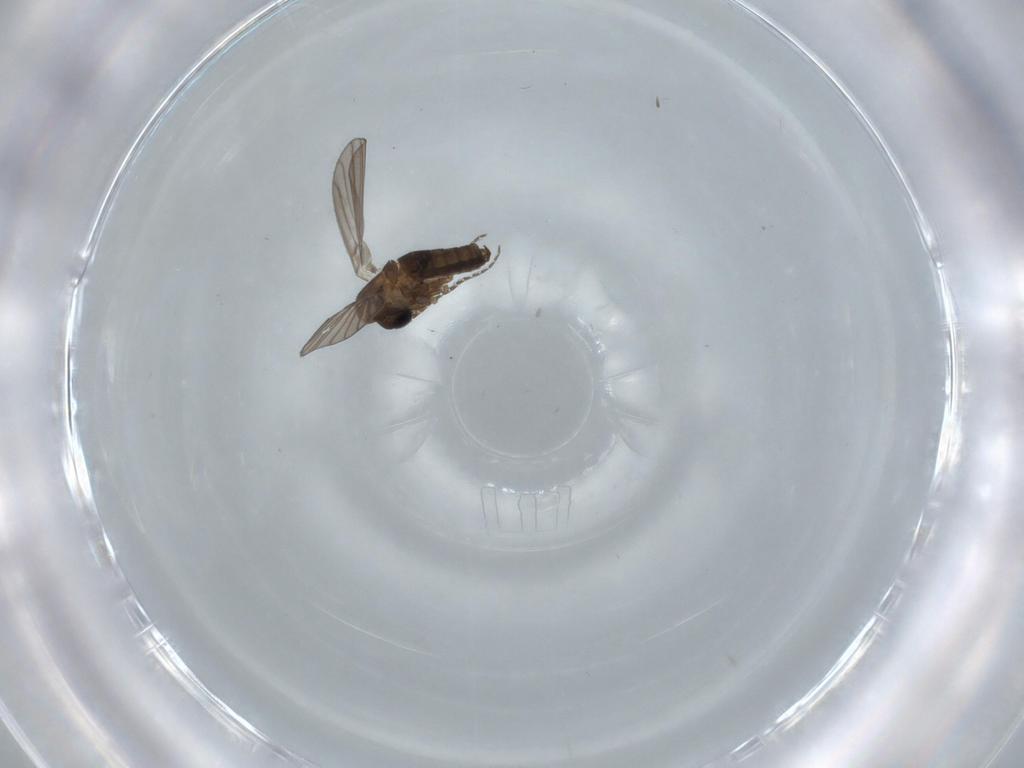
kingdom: Animalia
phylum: Arthropoda
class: Insecta
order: Diptera
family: Psychodidae
